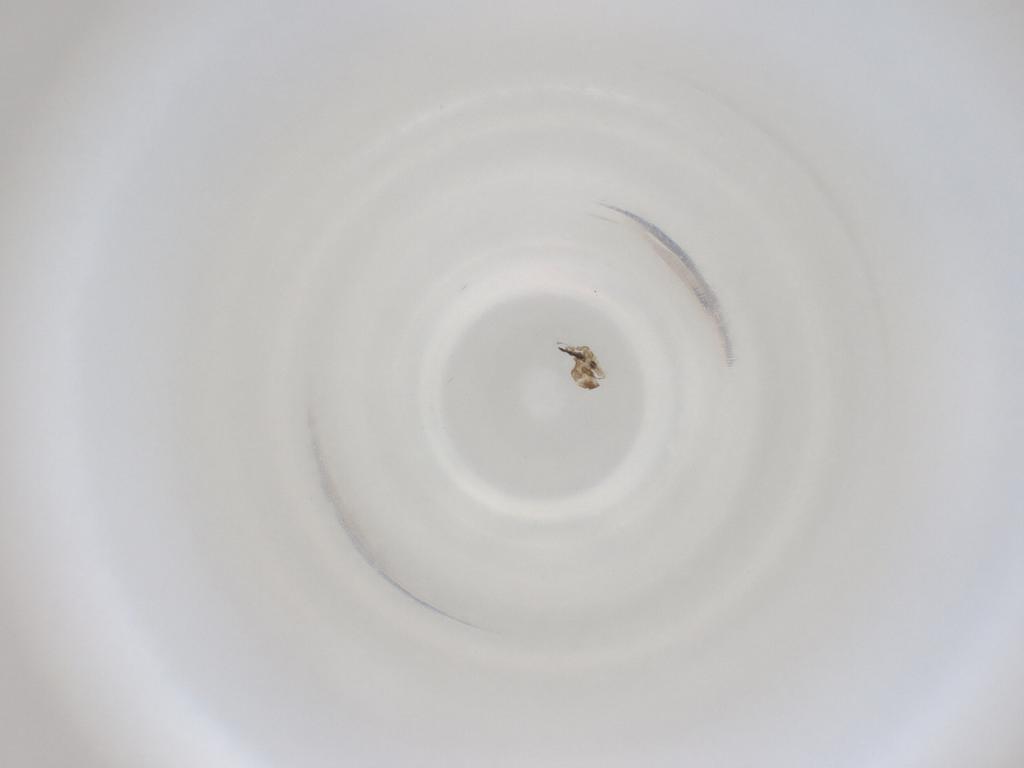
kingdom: Animalia
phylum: Arthropoda
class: Insecta
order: Diptera
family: Cecidomyiidae
